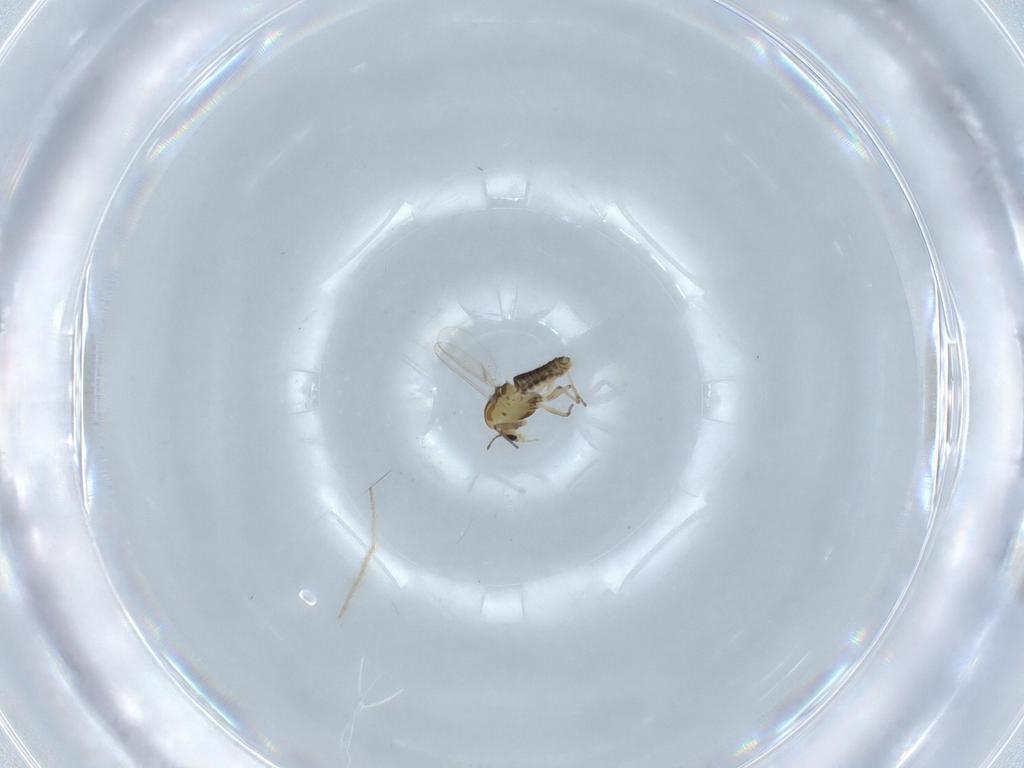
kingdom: Animalia
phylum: Arthropoda
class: Insecta
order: Diptera
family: Chironomidae
